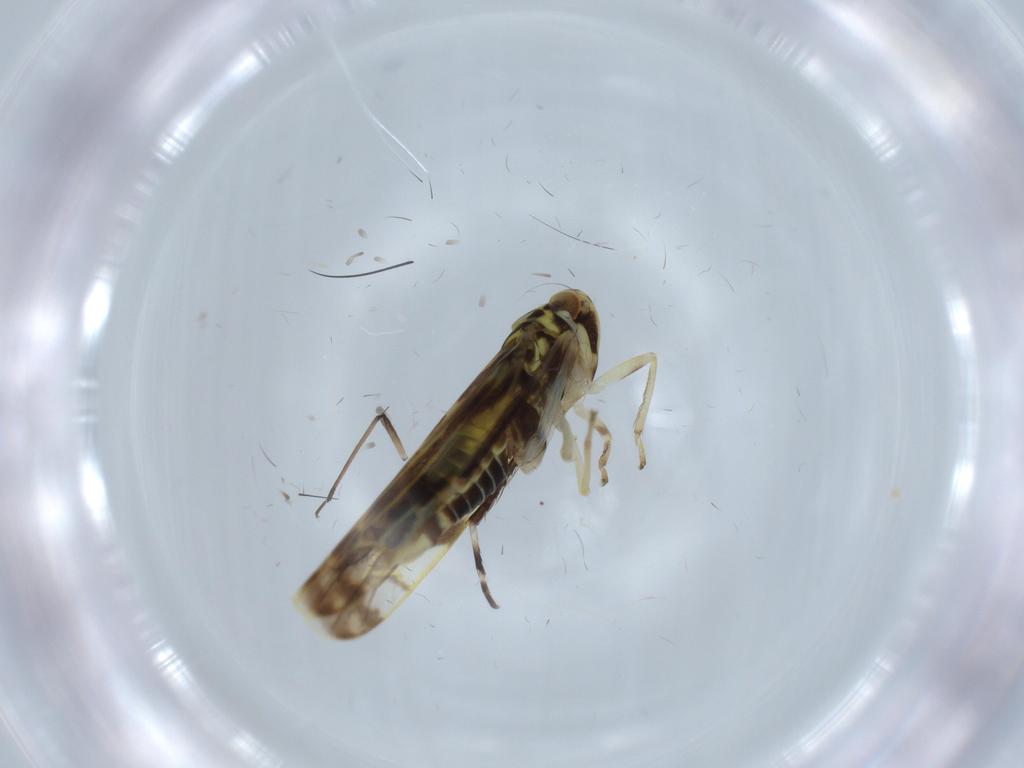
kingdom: Animalia
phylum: Arthropoda
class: Insecta
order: Hemiptera
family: Cicadellidae
